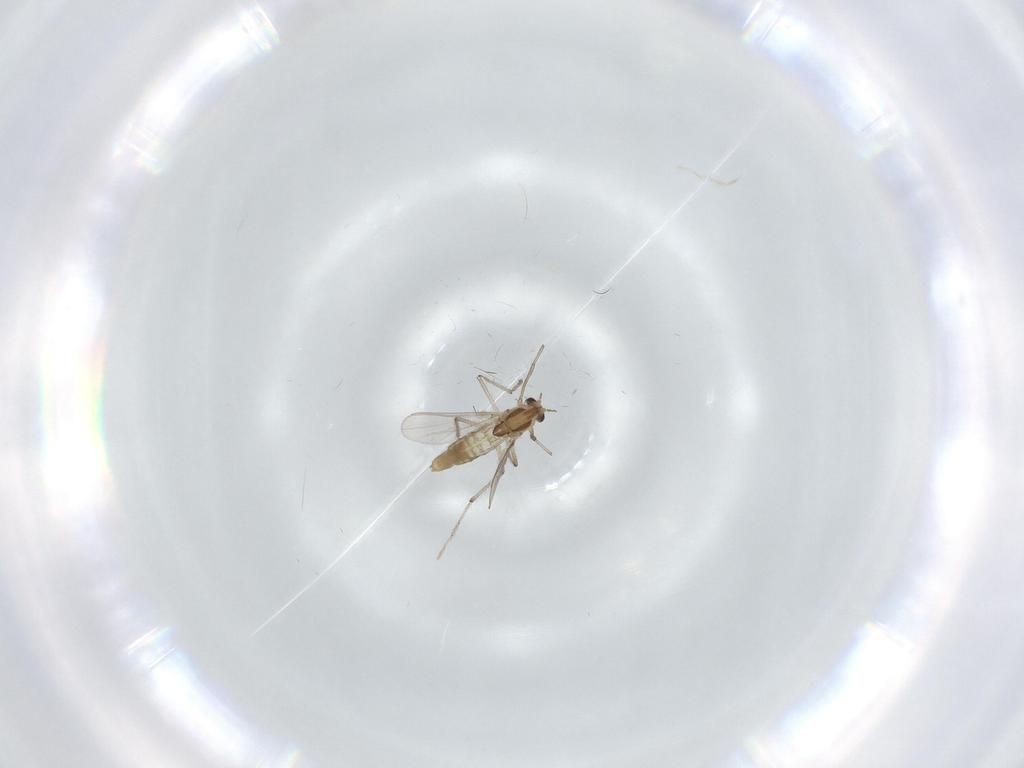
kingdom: Animalia
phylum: Arthropoda
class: Insecta
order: Diptera
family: Chironomidae
